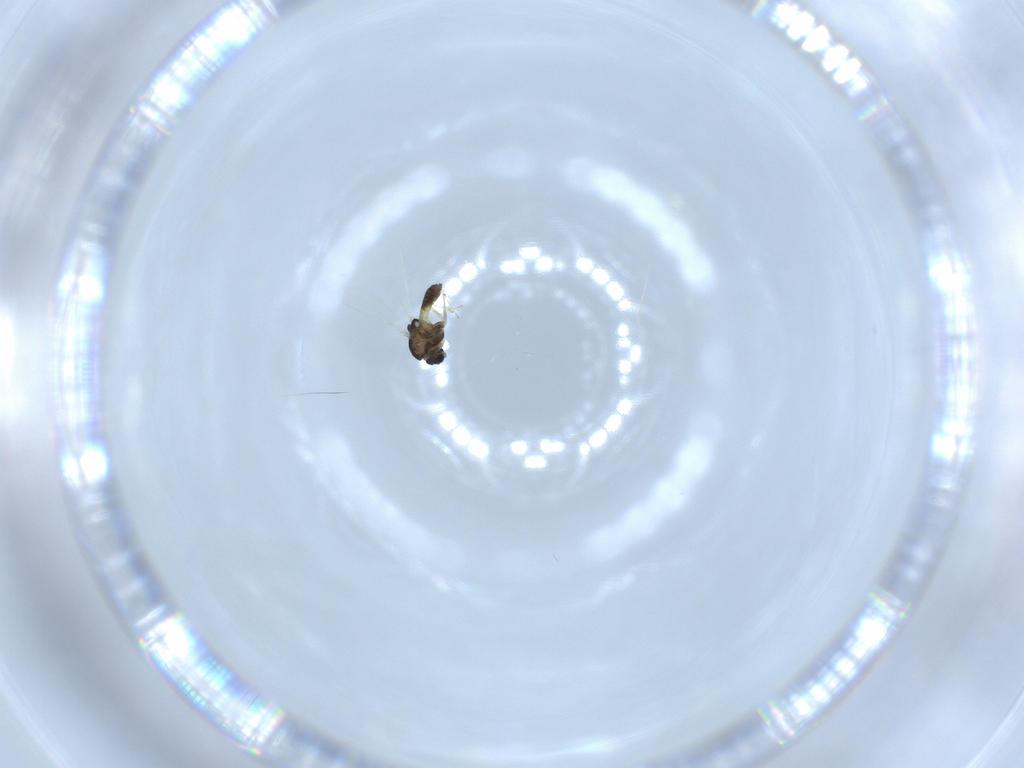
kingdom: Animalia
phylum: Arthropoda
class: Insecta
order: Diptera
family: Chironomidae
